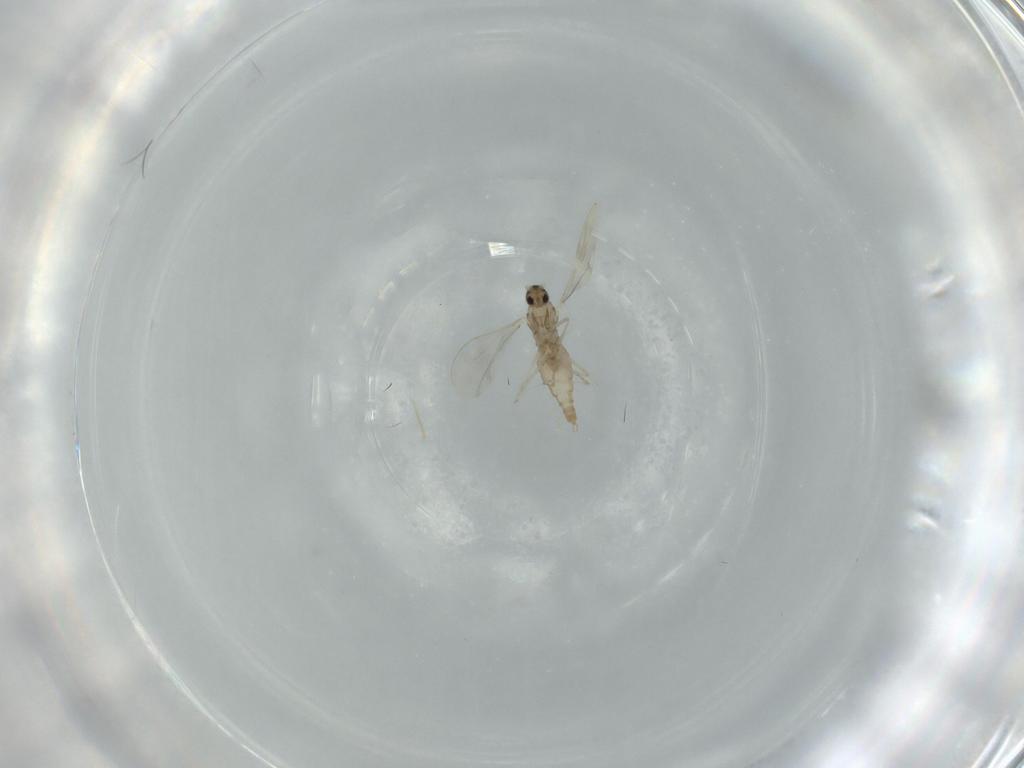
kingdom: Animalia
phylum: Arthropoda
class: Insecta
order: Diptera
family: Cecidomyiidae
